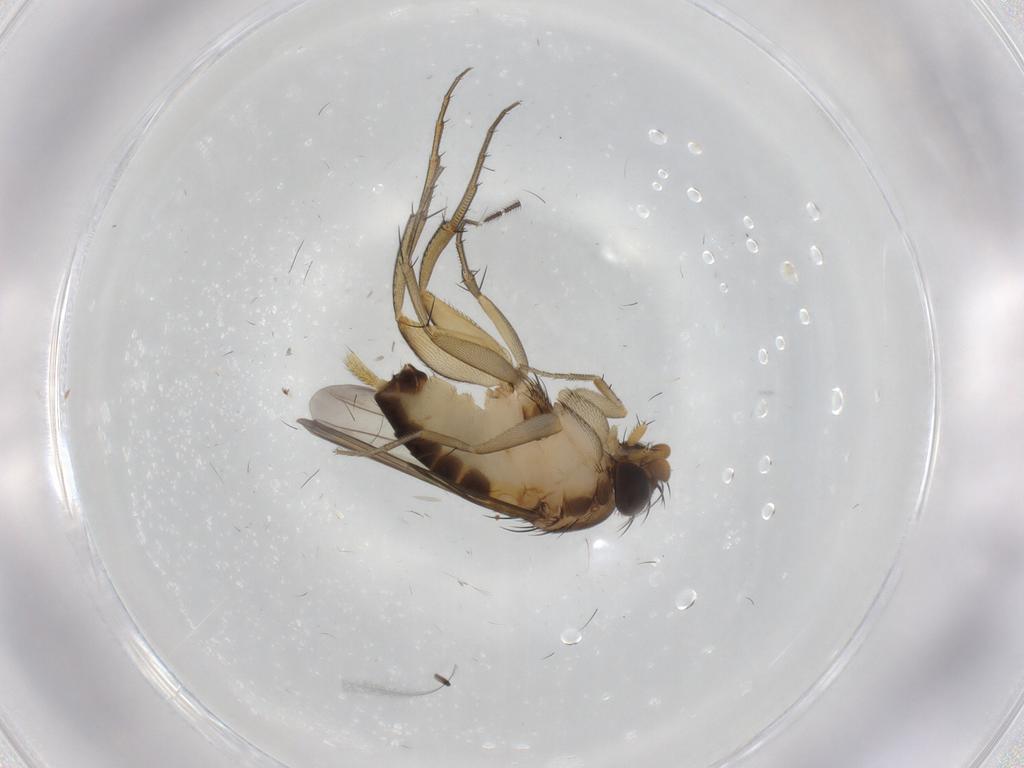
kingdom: Animalia
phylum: Arthropoda
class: Insecta
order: Diptera
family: Phoridae
